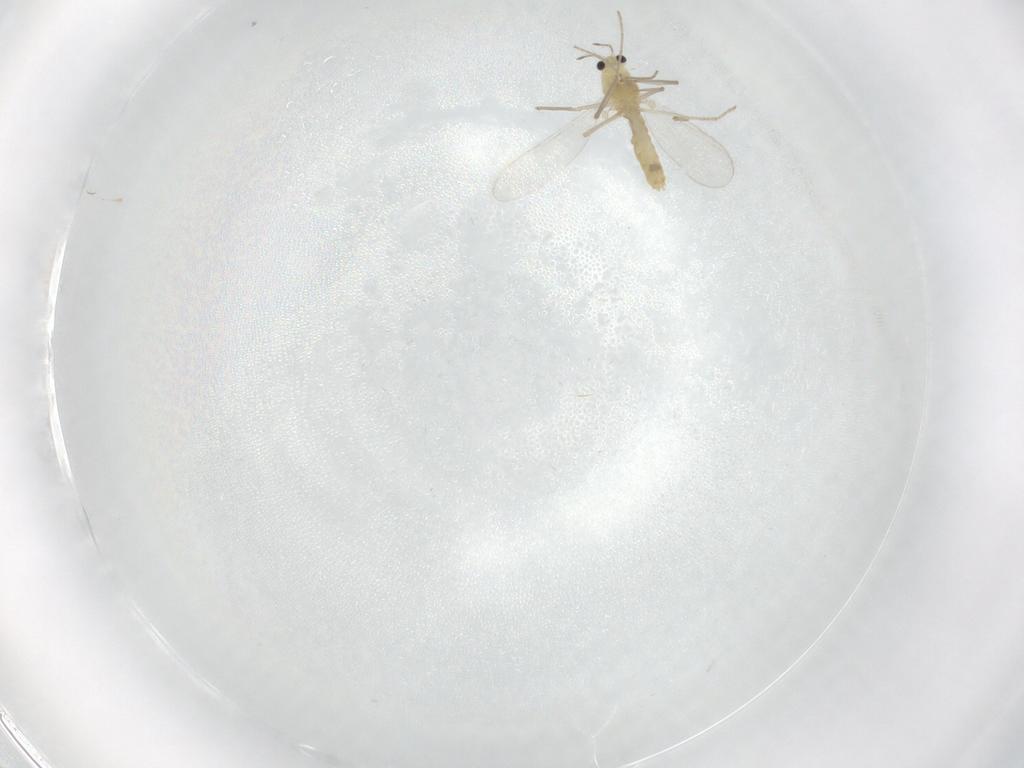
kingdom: Animalia
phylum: Arthropoda
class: Insecta
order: Diptera
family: Chironomidae
